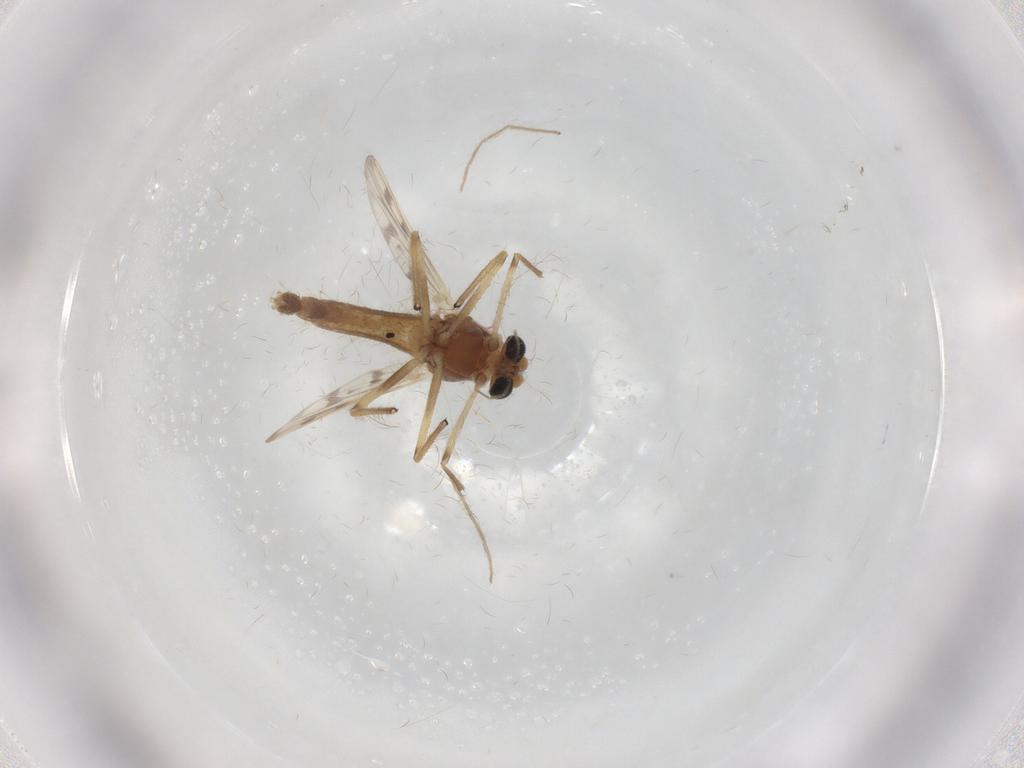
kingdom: Animalia
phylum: Arthropoda
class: Insecta
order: Diptera
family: Chironomidae
